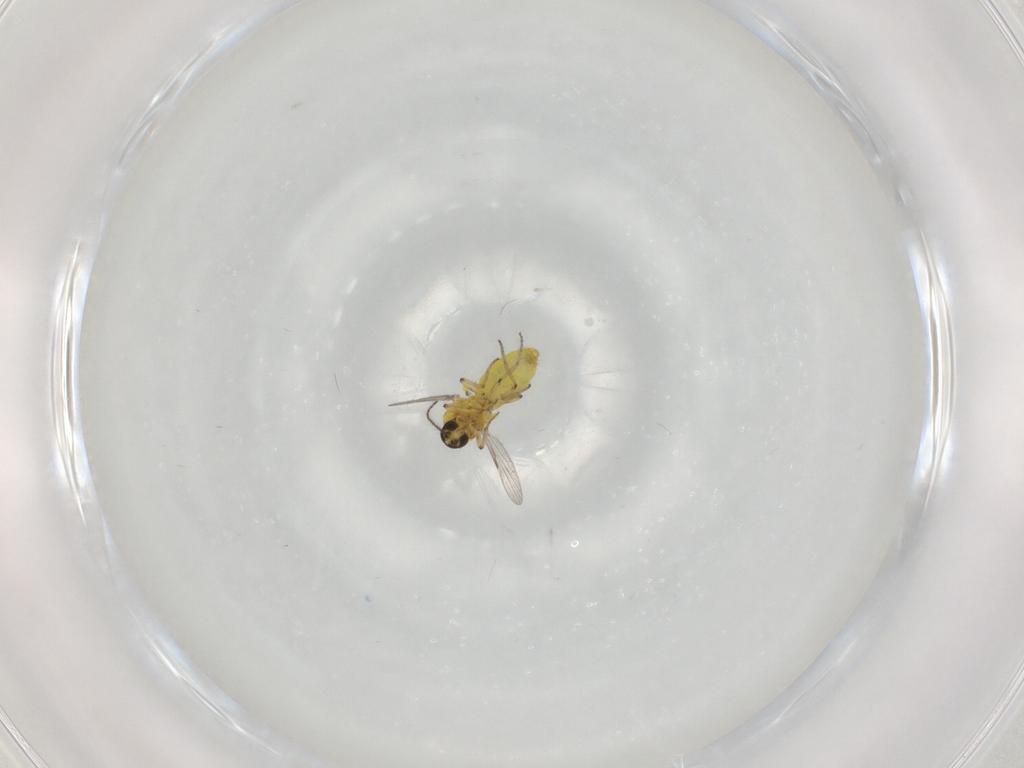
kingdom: Animalia
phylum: Arthropoda
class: Insecta
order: Diptera
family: Ceratopogonidae
